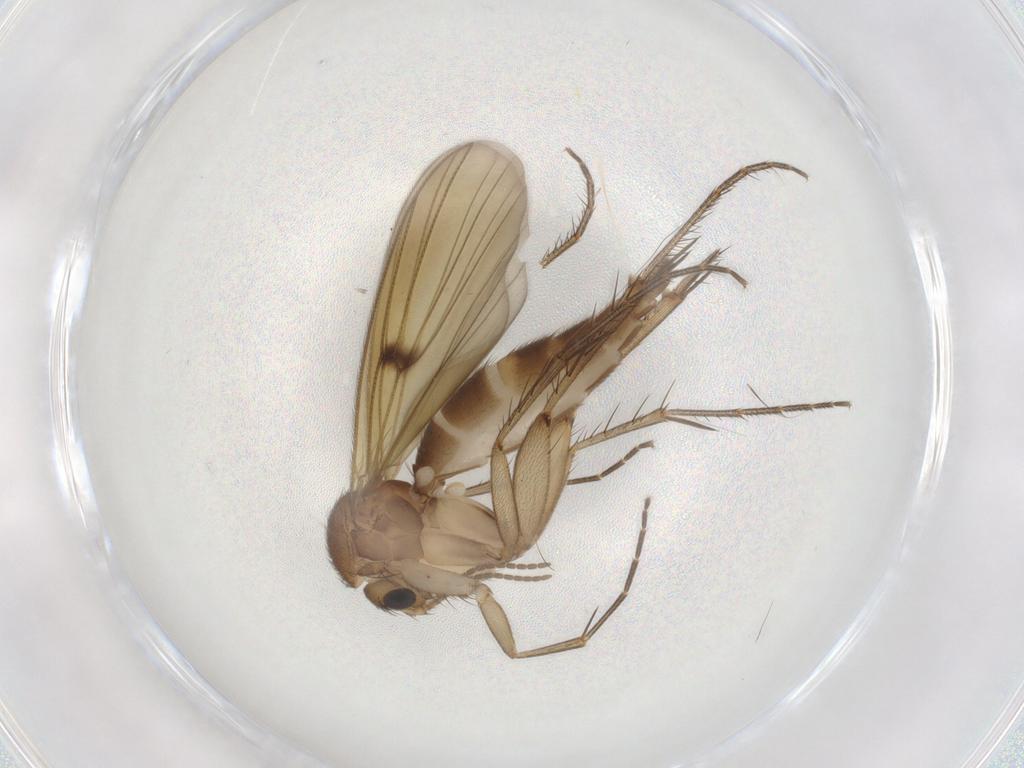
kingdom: Animalia
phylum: Arthropoda
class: Insecta
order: Diptera
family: Mycetophilidae
